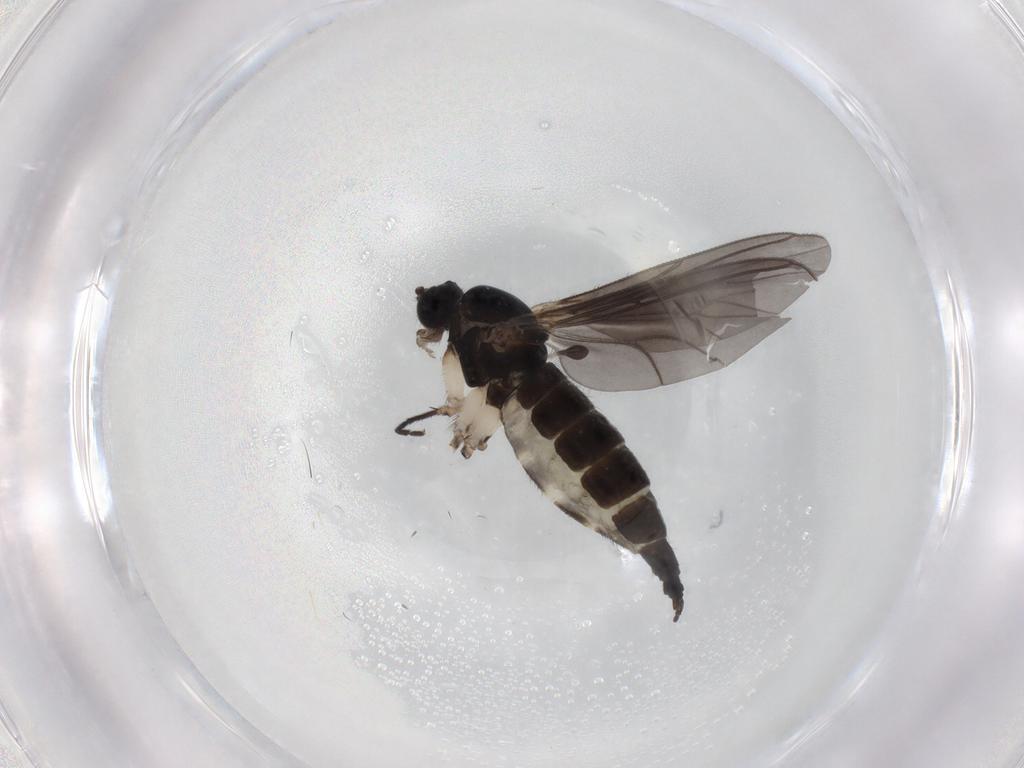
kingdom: Animalia
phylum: Arthropoda
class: Insecta
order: Diptera
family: Sciaridae
